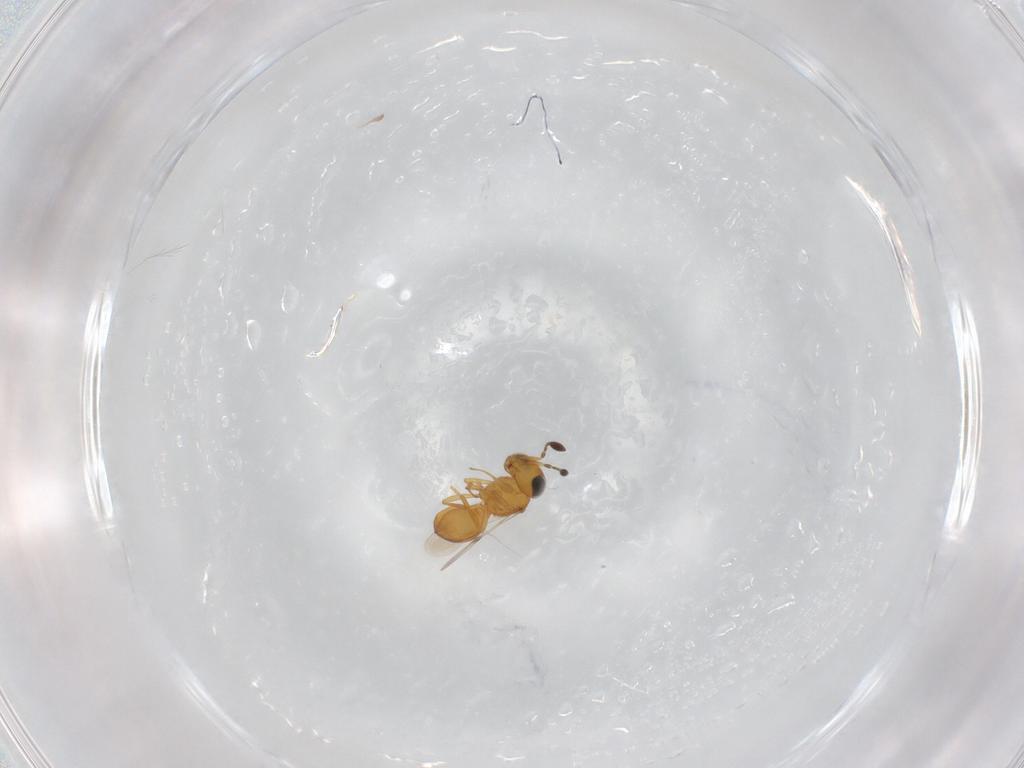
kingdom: Animalia
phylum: Arthropoda
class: Arachnida
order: Araneae
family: Pholcidae
